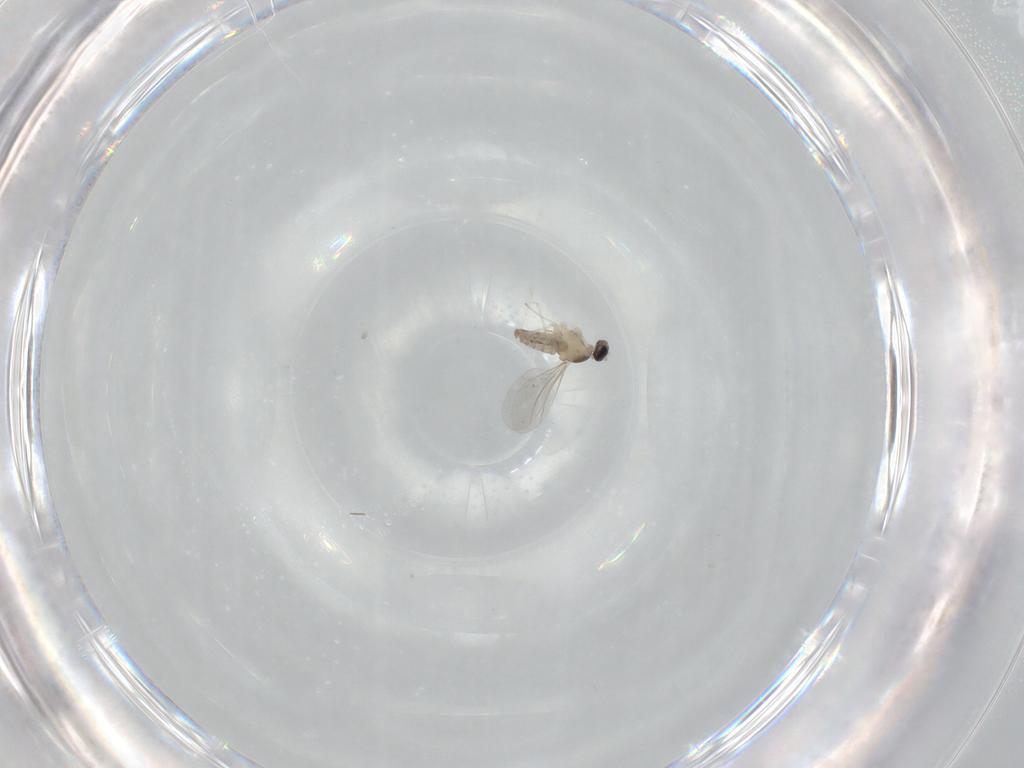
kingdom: Animalia
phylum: Arthropoda
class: Insecta
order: Diptera
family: Cecidomyiidae
